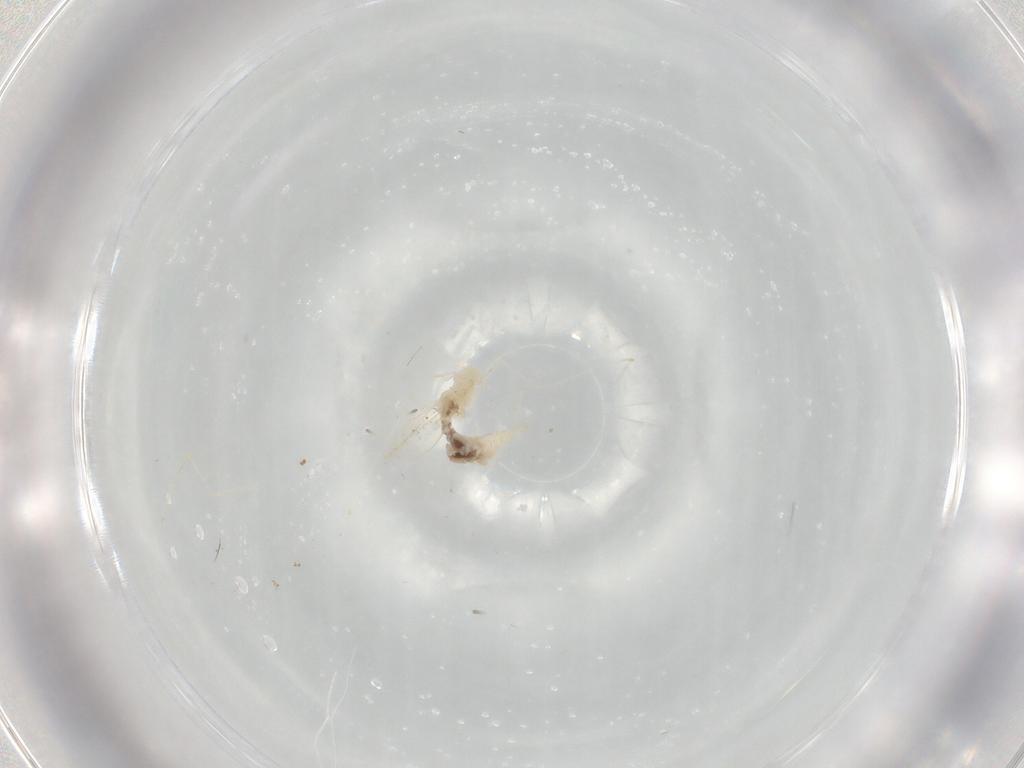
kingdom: Animalia
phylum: Arthropoda
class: Insecta
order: Diptera
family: Cecidomyiidae
